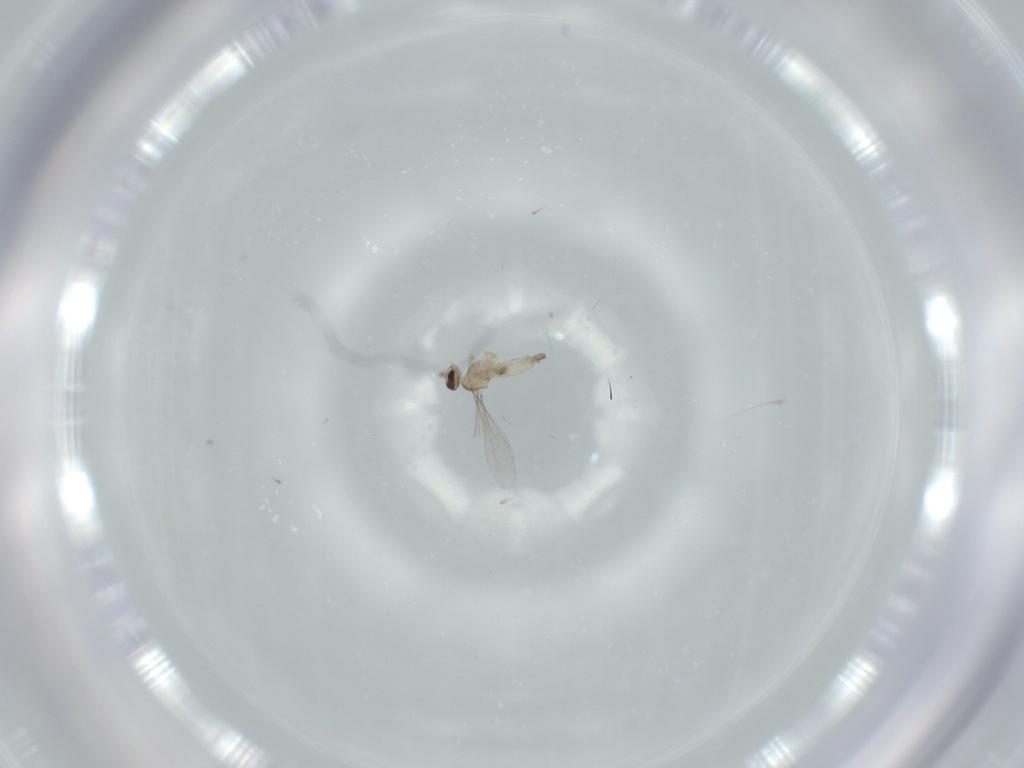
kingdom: Animalia
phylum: Arthropoda
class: Insecta
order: Diptera
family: Cecidomyiidae
